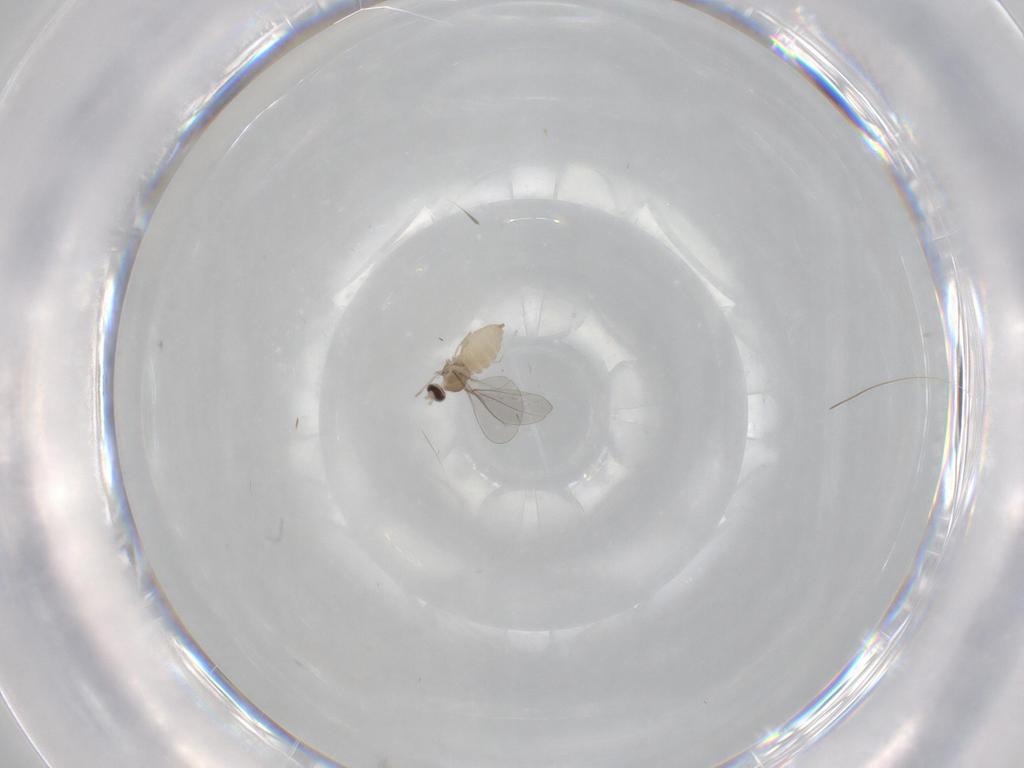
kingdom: Animalia
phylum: Arthropoda
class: Insecta
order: Diptera
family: Cecidomyiidae
